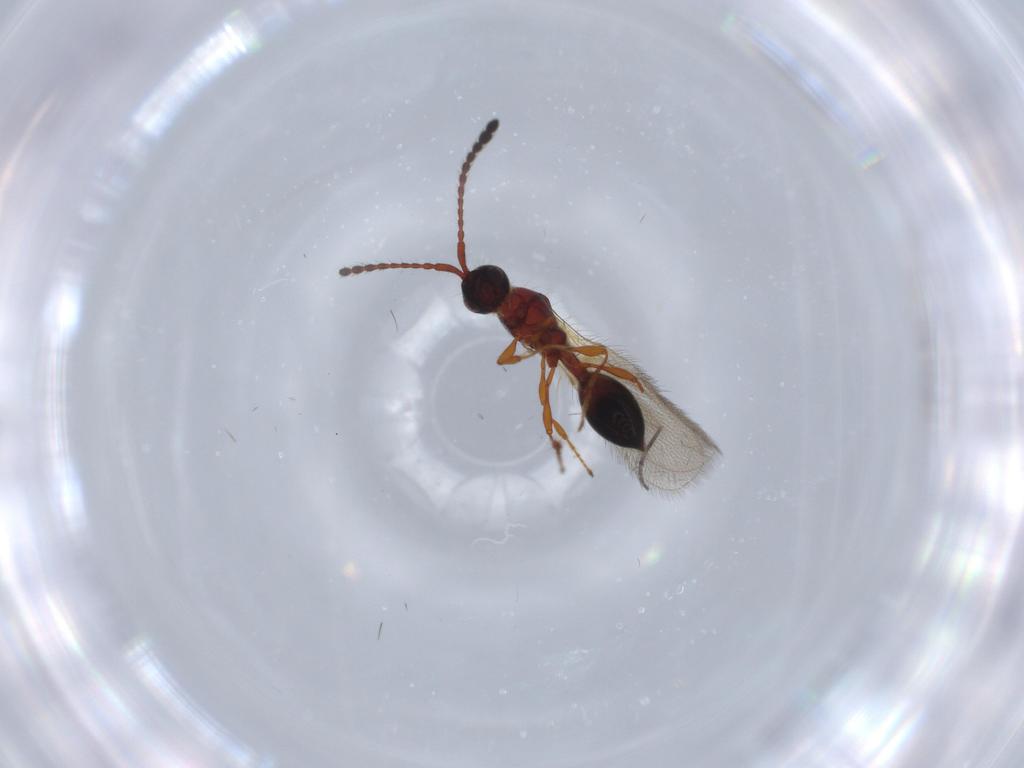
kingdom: Animalia
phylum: Arthropoda
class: Insecta
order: Hymenoptera
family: Diapriidae
